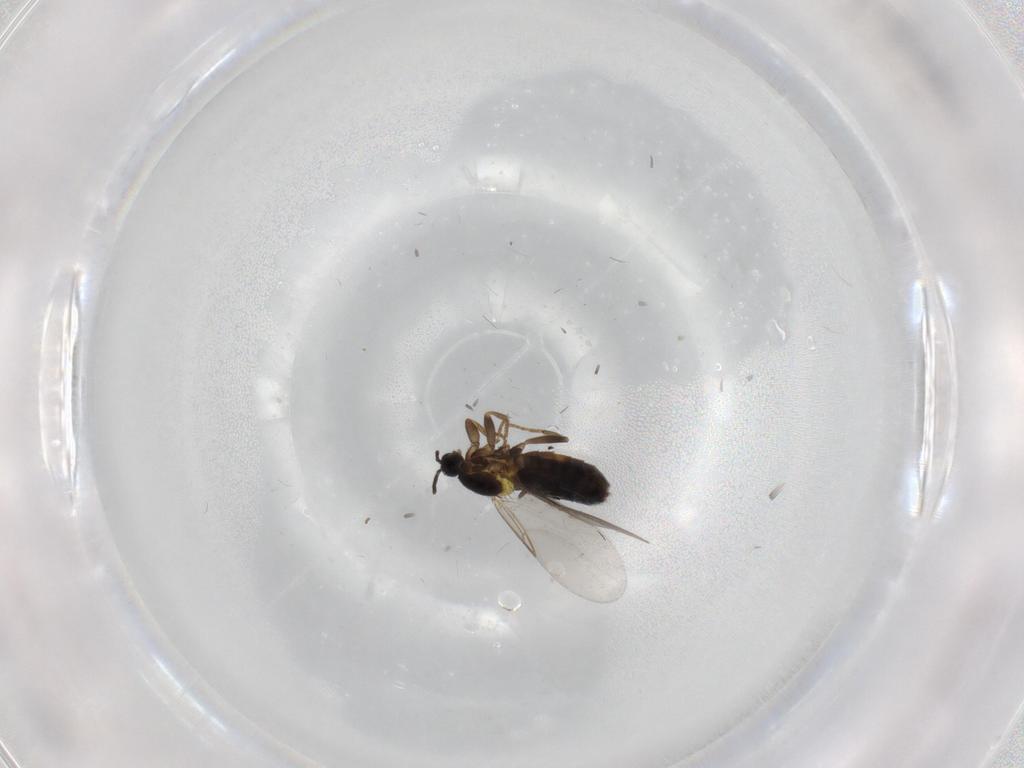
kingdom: Animalia
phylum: Arthropoda
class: Insecta
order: Diptera
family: Scatopsidae
